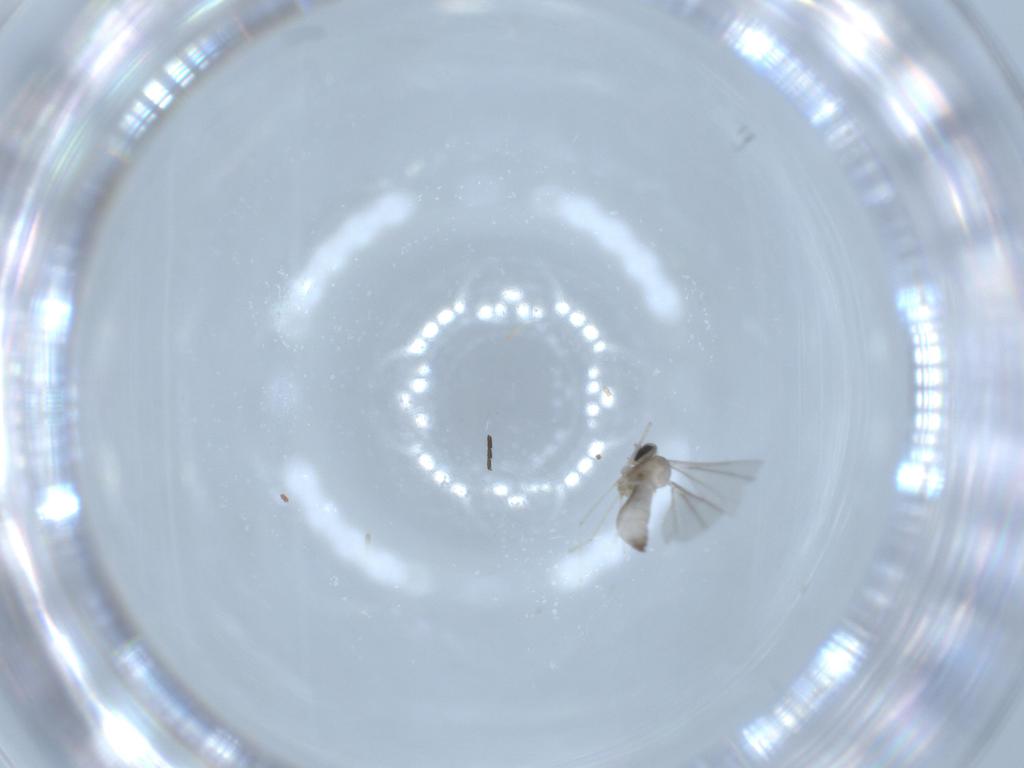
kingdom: Animalia
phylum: Arthropoda
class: Insecta
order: Diptera
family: Cecidomyiidae
